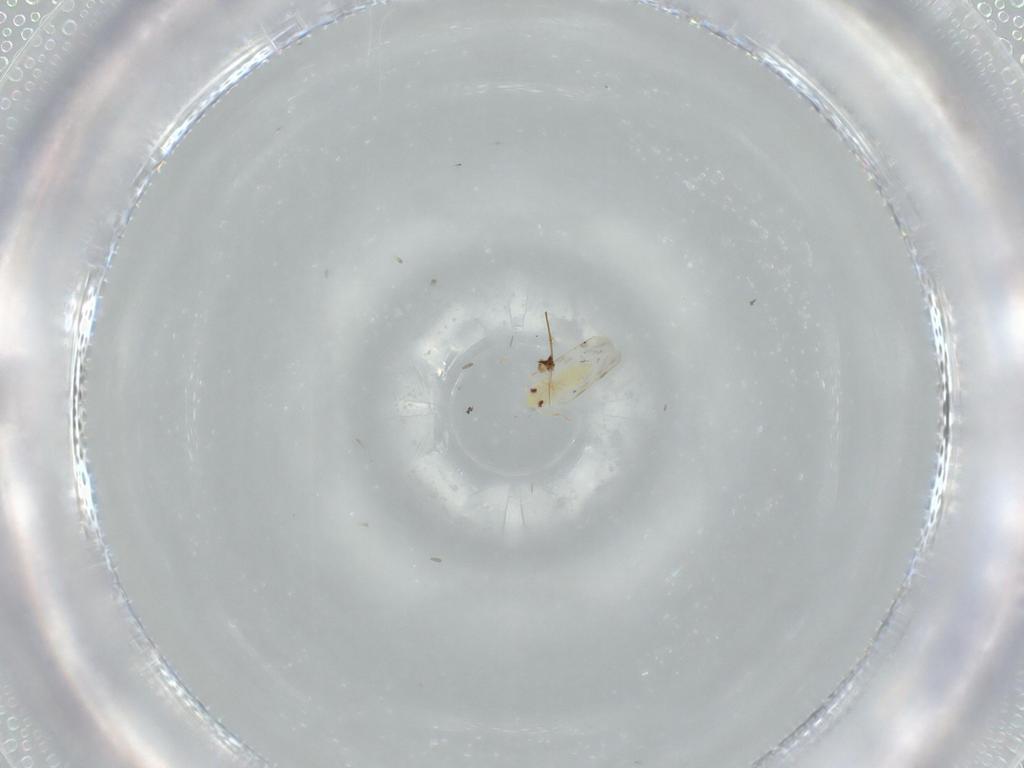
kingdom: Animalia
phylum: Arthropoda
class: Insecta
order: Hemiptera
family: Aleyrodidae
